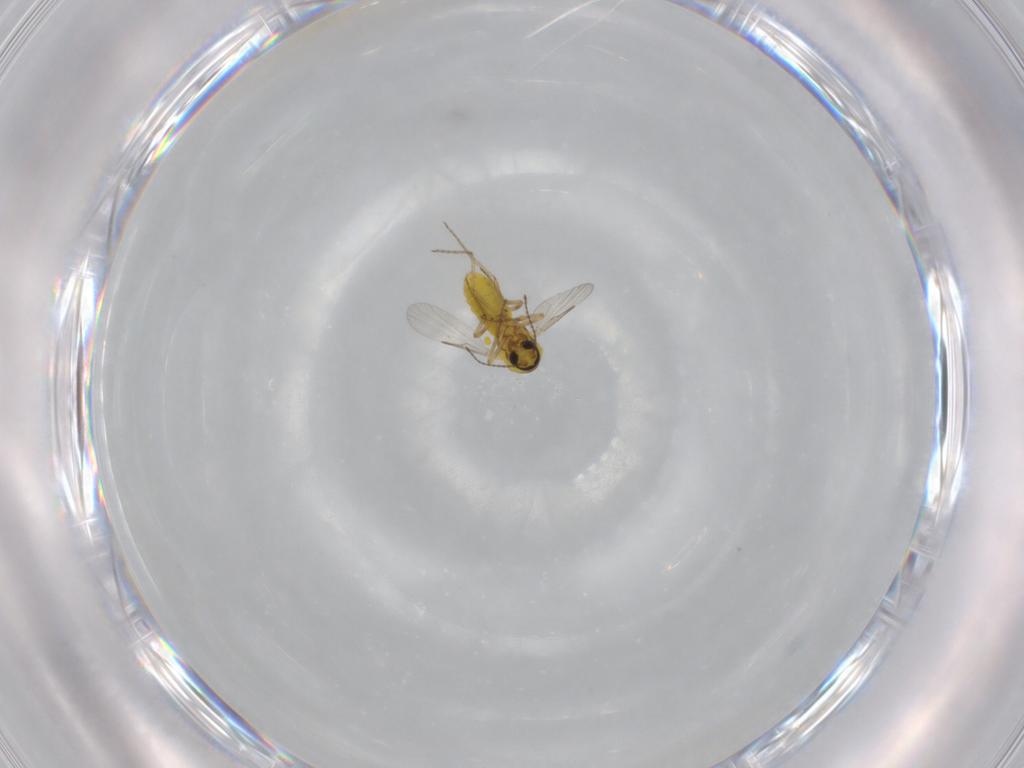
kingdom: Animalia
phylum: Arthropoda
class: Insecta
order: Diptera
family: Ceratopogonidae
